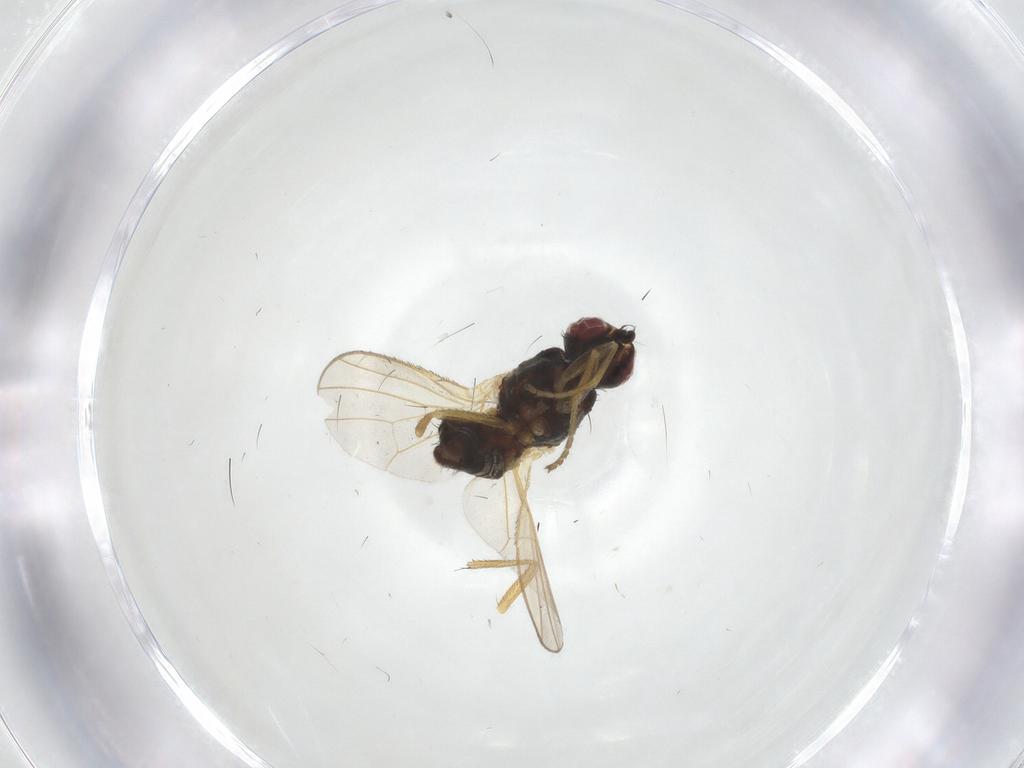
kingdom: Animalia
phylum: Arthropoda
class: Insecta
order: Diptera
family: Heleomyzidae
